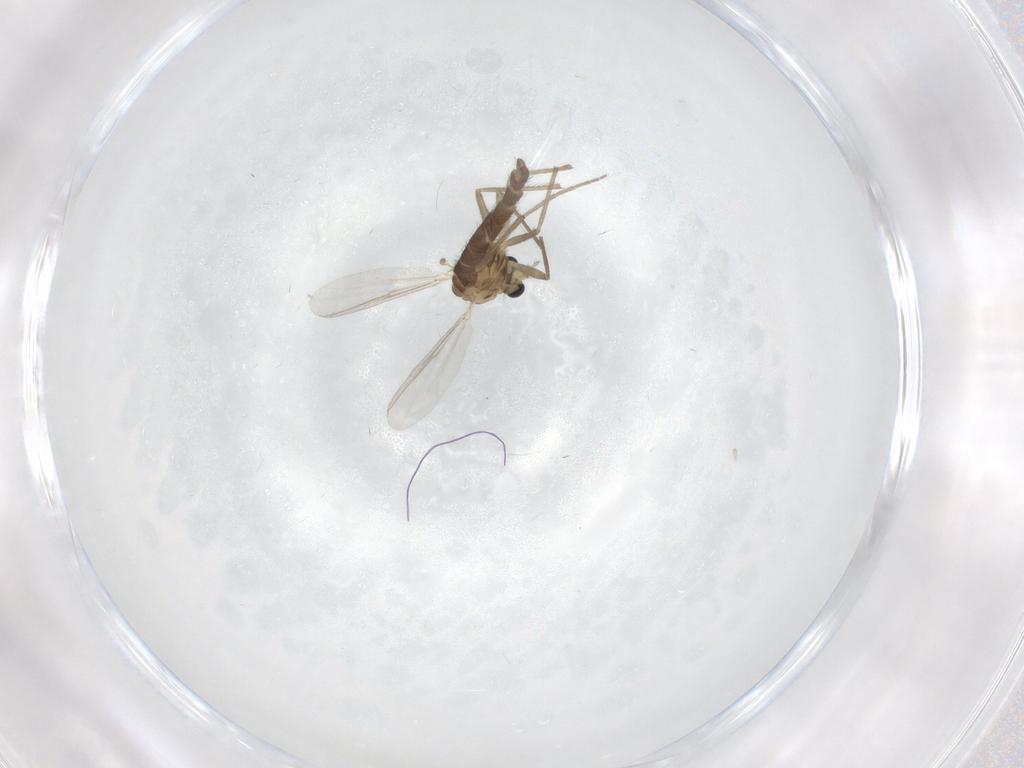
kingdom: Animalia
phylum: Arthropoda
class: Insecta
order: Diptera
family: Chironomidae
